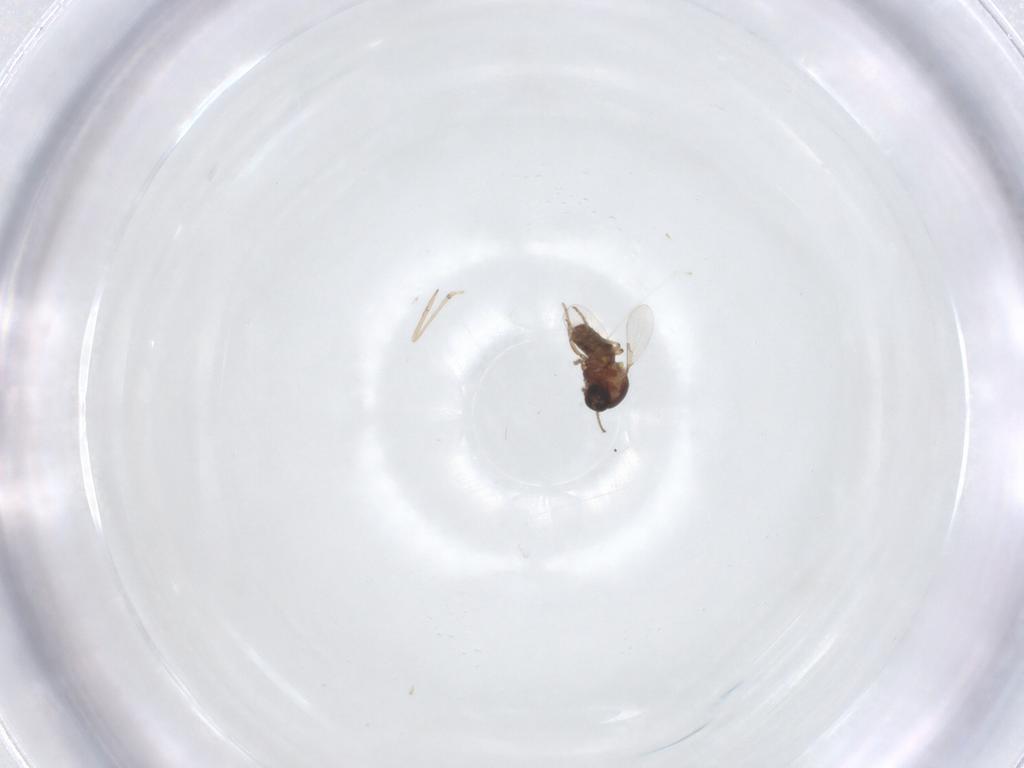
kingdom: Animalia
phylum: Arthropoda
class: Insecta
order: Diptera
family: Cecidomyiidae
